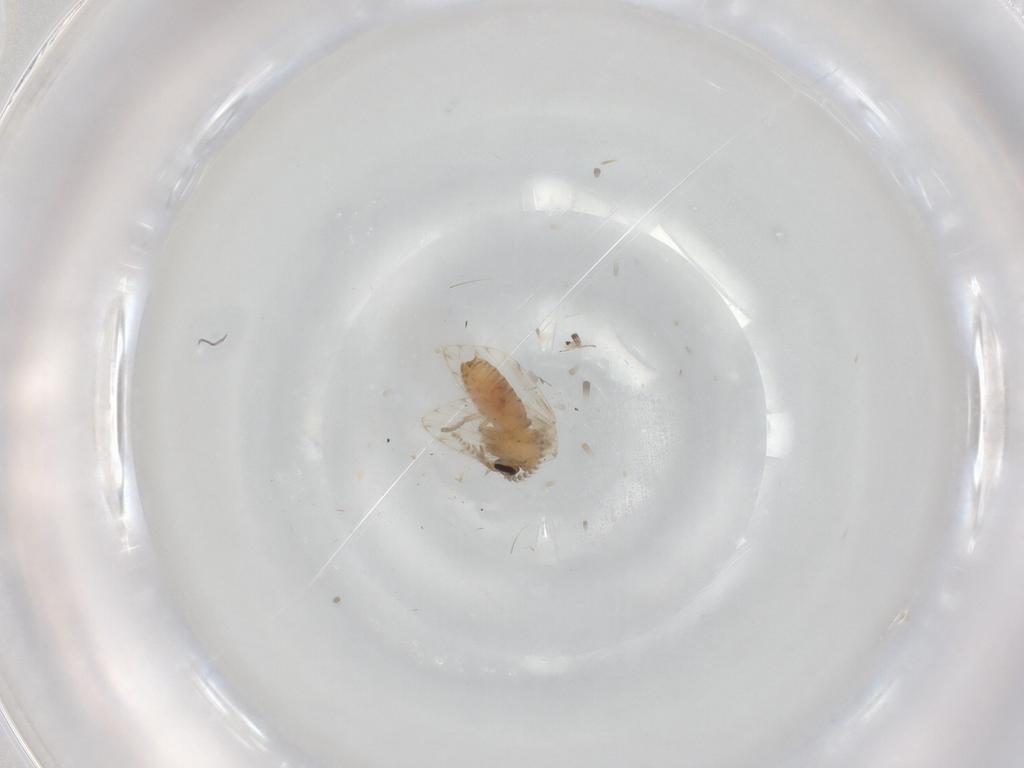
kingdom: Animalia
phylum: Arthropoda
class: Insecta
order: Diptera
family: Psychodidae
